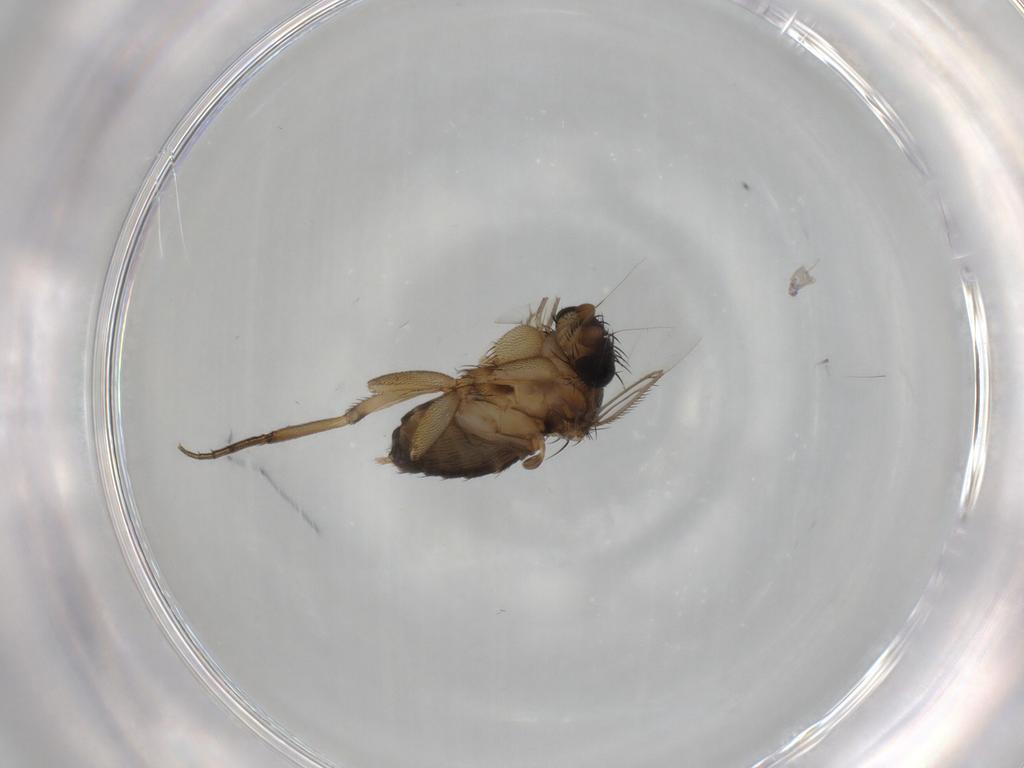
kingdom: Animalia
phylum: Arthropoda
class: Insecta
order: Diptera
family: Phoridae
